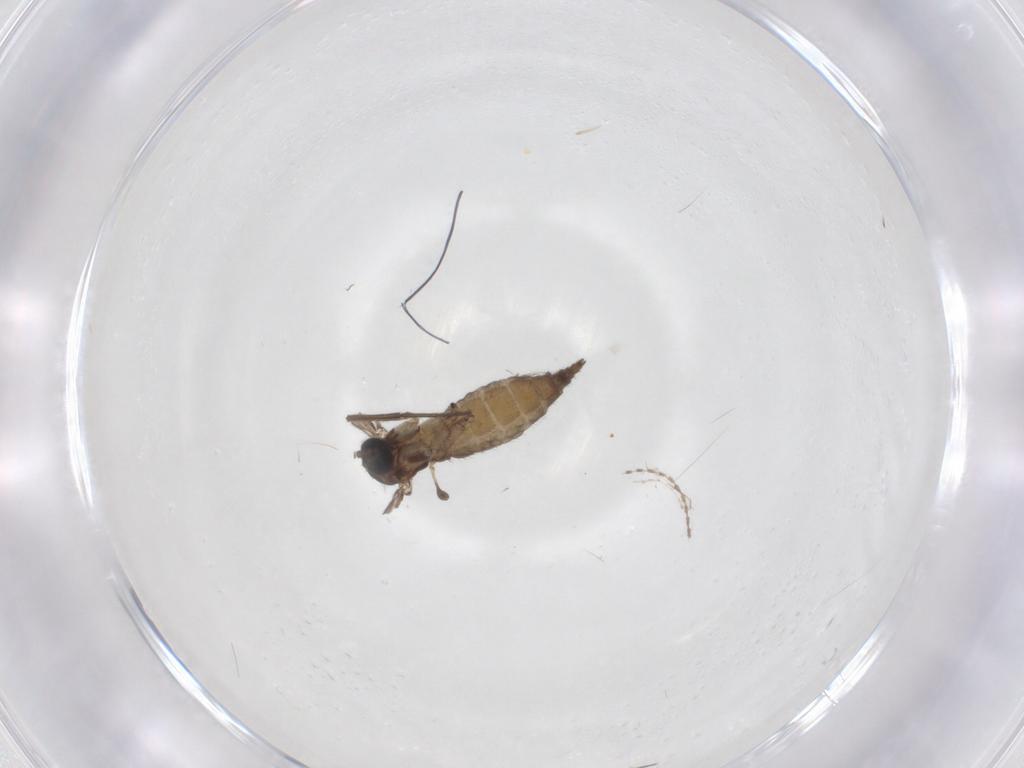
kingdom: Animalia
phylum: Arthropoda
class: Insecta
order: Diptera
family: Sciaridae
